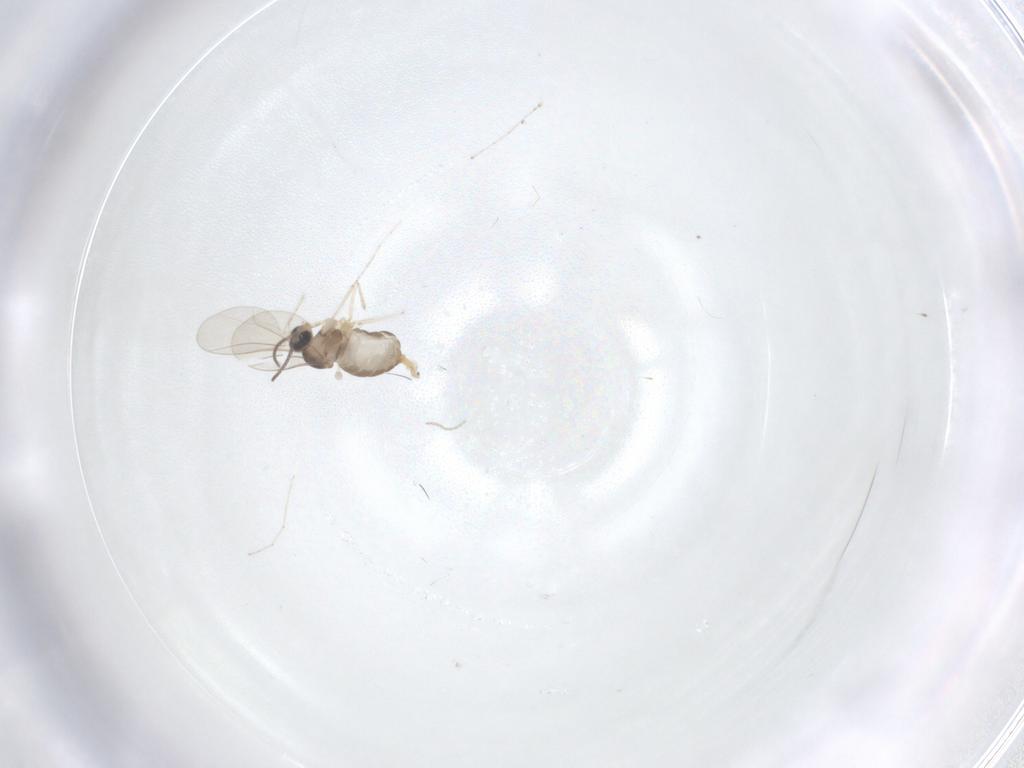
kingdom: Animalia
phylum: Arthropoda
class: Insecta
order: Diptera
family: Cecidomyiidae
